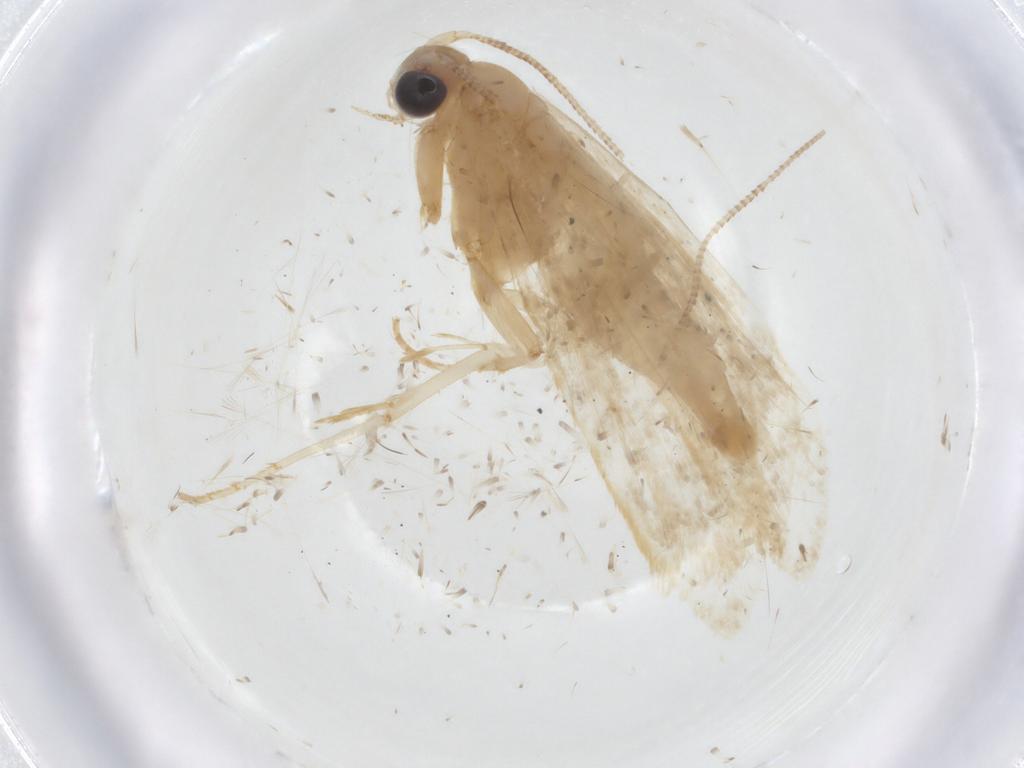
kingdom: Animalia
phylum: Arthropoda
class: Insecta
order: Lepidoptera
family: Tineidae
